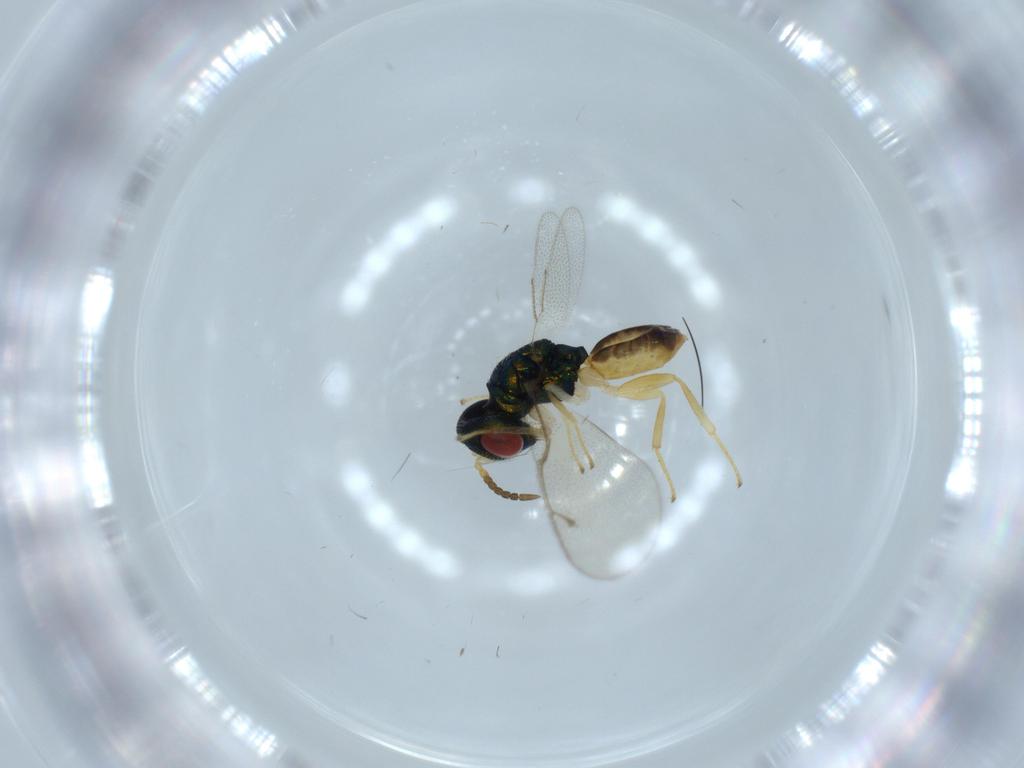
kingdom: Animalia
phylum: Arthropoda
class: Insecta
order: Hymenoptera
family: Pteromalidae
